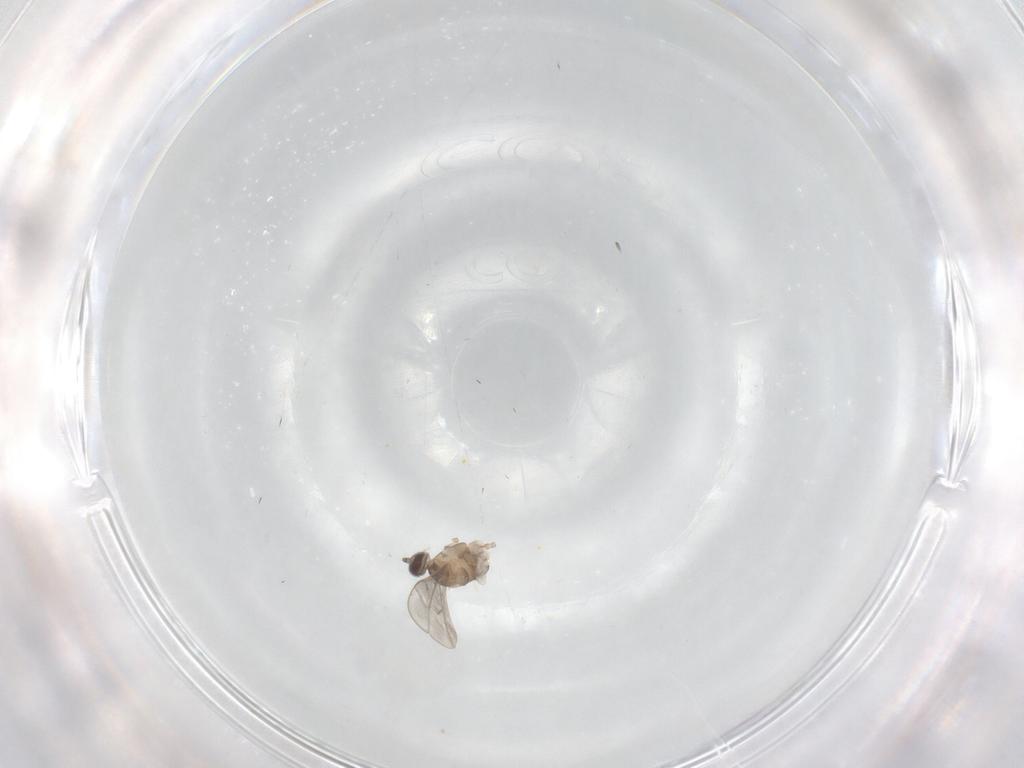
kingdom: Animalia
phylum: Arthropoda
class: Insecta
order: Diptera
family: Cecidomyiidae
